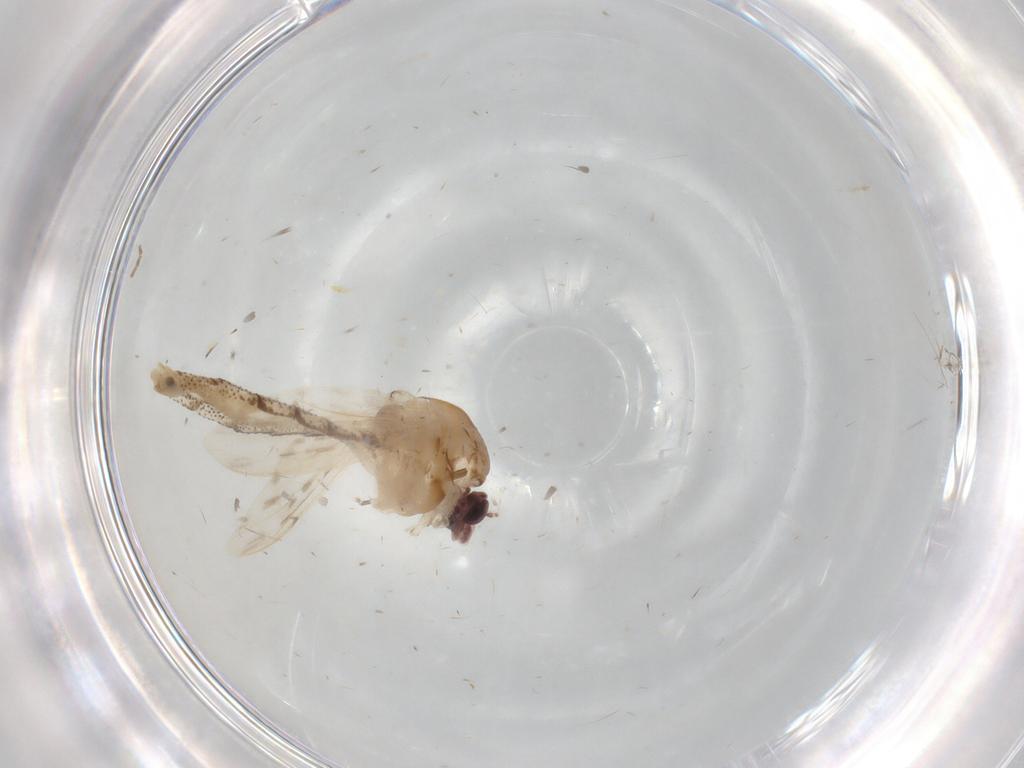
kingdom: Animalia
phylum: Arthropoda
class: Insecta
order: Diptera
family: Chaoboridae
